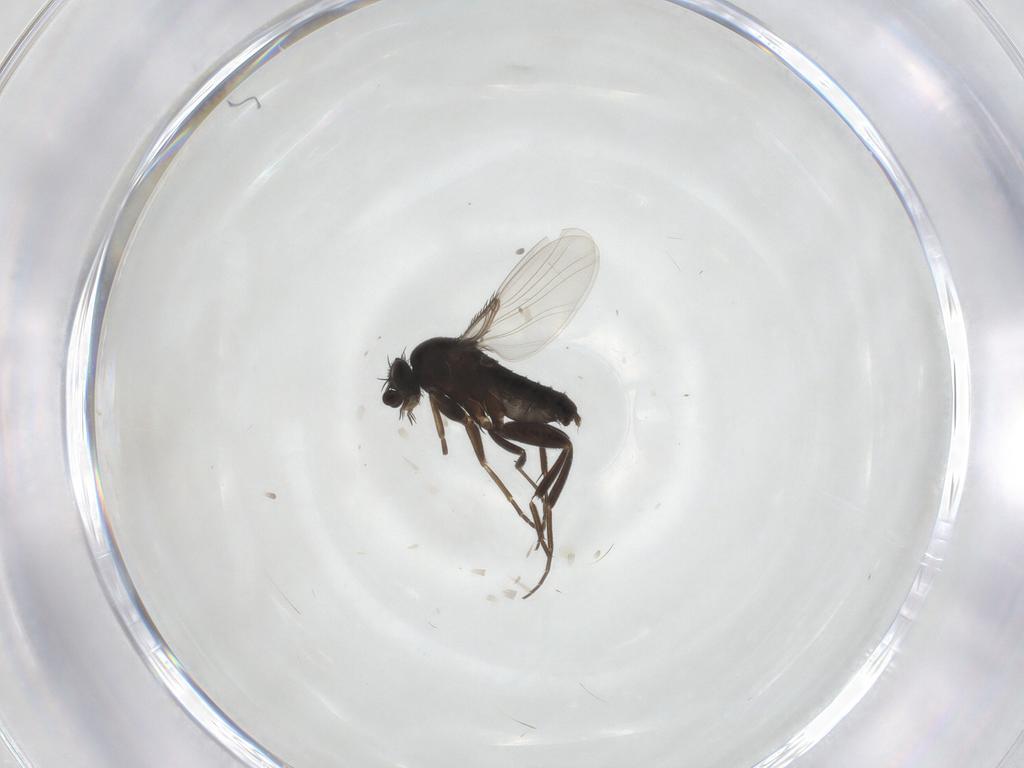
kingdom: Animalia
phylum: Arthropoda
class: Insecta
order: Diptera
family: Phoridae
